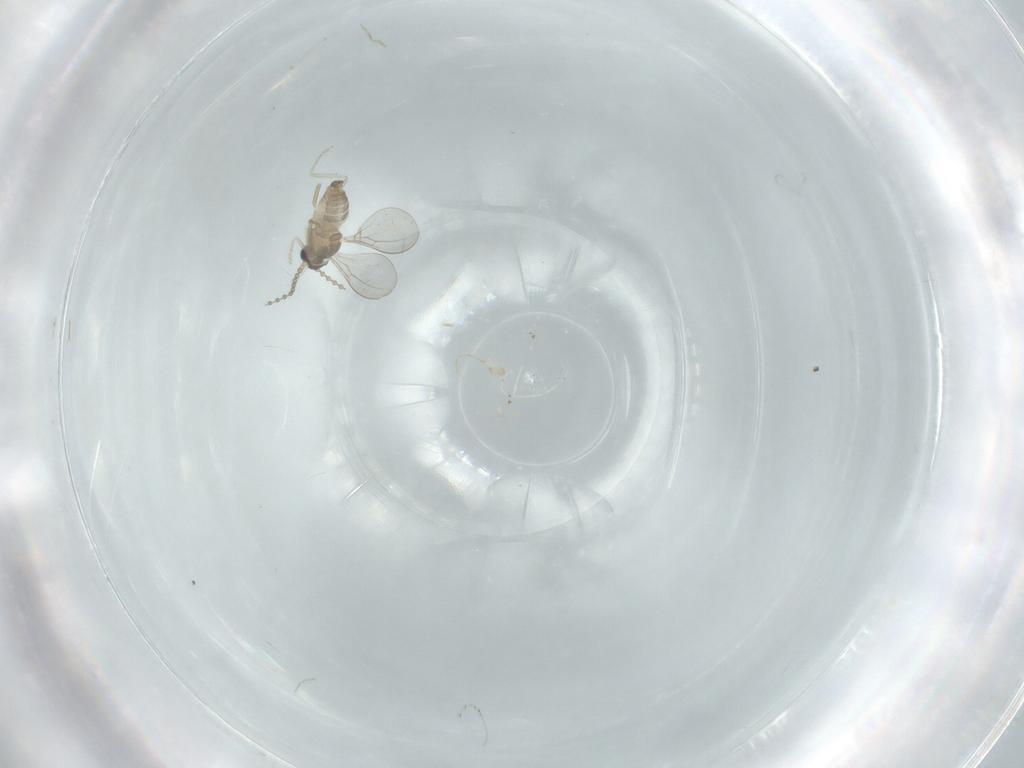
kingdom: Animalia
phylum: Arthropoda
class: Insecta
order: Diptera
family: Cecidomyiidae
